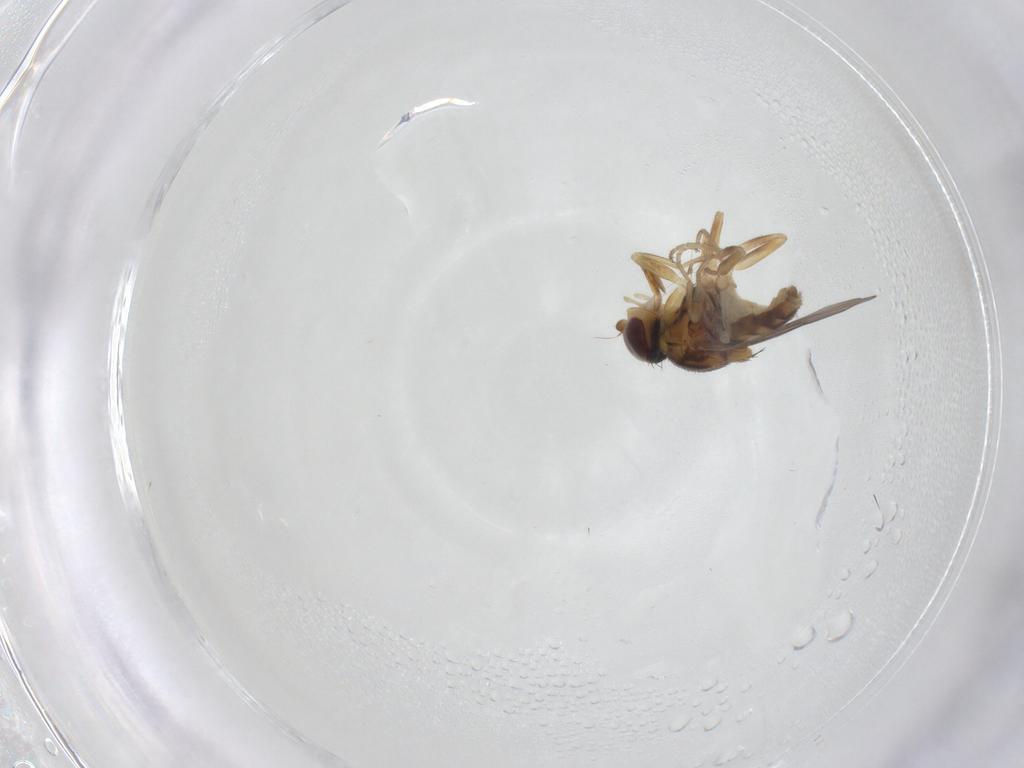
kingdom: Animalia
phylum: Arthropoda
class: Insecta
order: Diptera
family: Chloropidae
